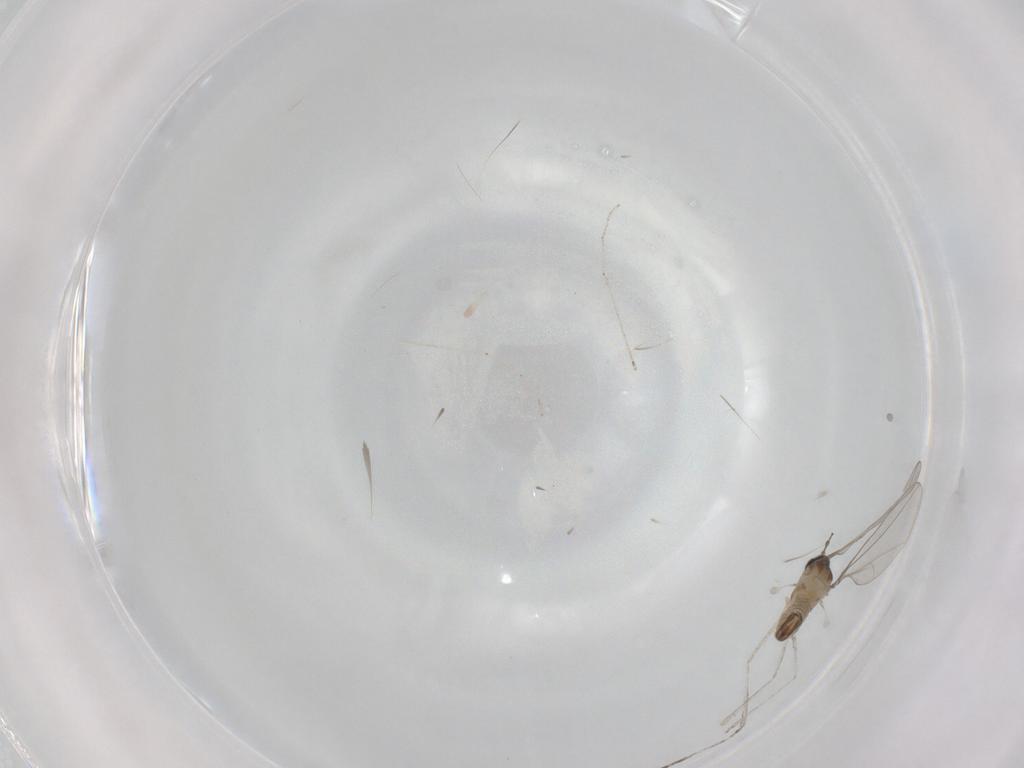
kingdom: Animalia
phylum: Arthropoda
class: Insecta
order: Diptera
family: Cecidomyiidae
